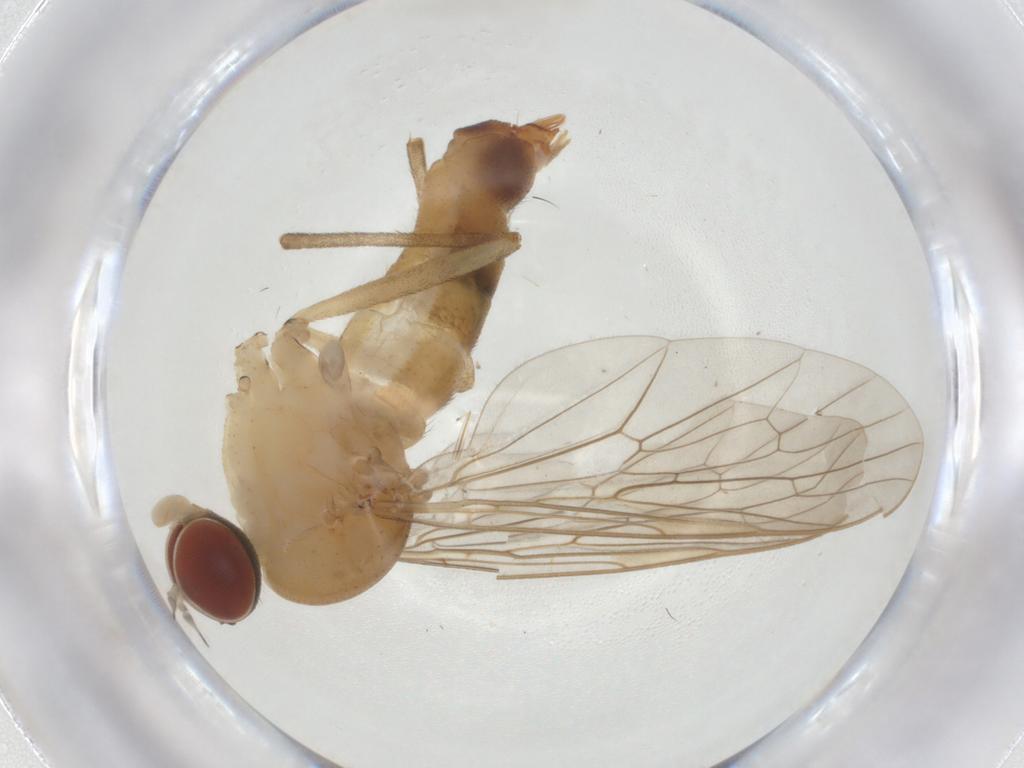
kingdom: Animalia
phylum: Arthropoda
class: Insecta
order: Diptera
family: Apsilocephalidae
